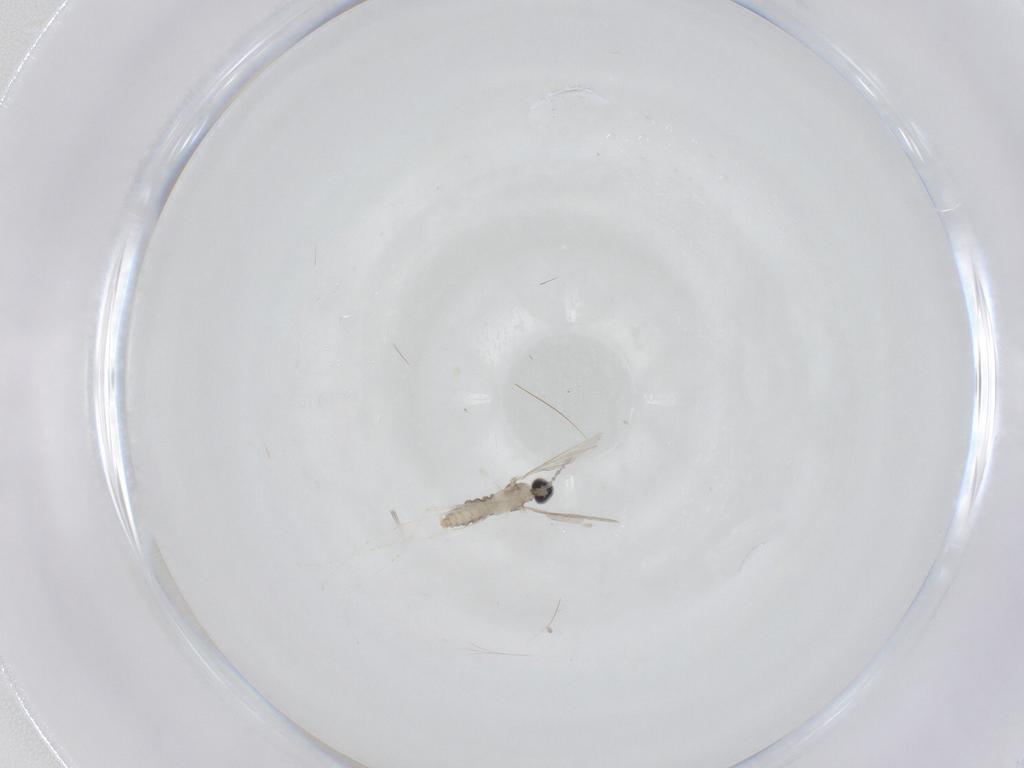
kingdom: Animalia
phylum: Arthropoda
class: Insecta
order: Diptera
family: Cecidomyiidae
